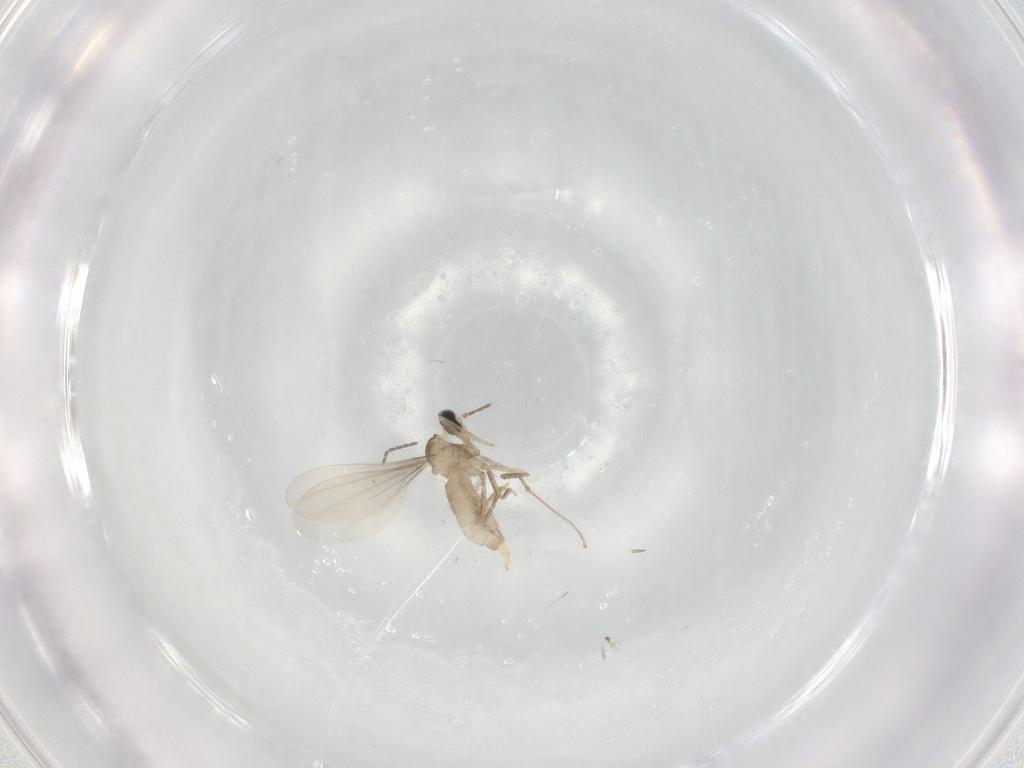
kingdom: Animalia
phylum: Arthropoda
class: Insecta
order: Diptera
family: Cecidomyiidae
